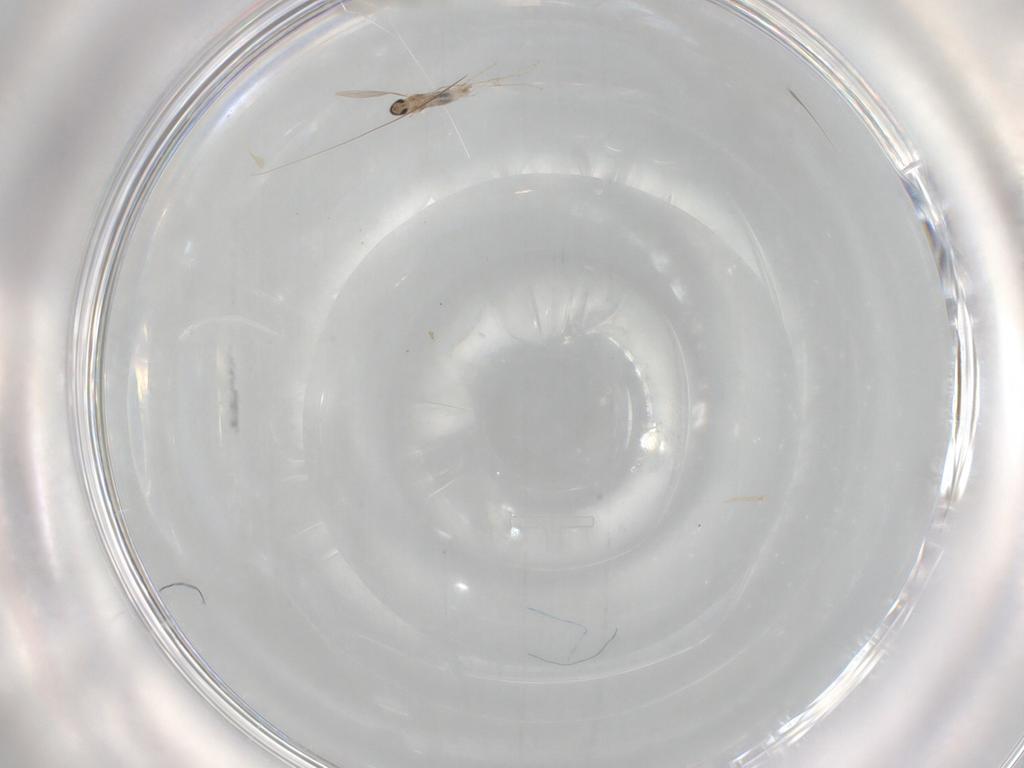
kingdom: Animalia
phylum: Arthropoda
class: Insecta
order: Diptera
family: Cecidomyiidae
